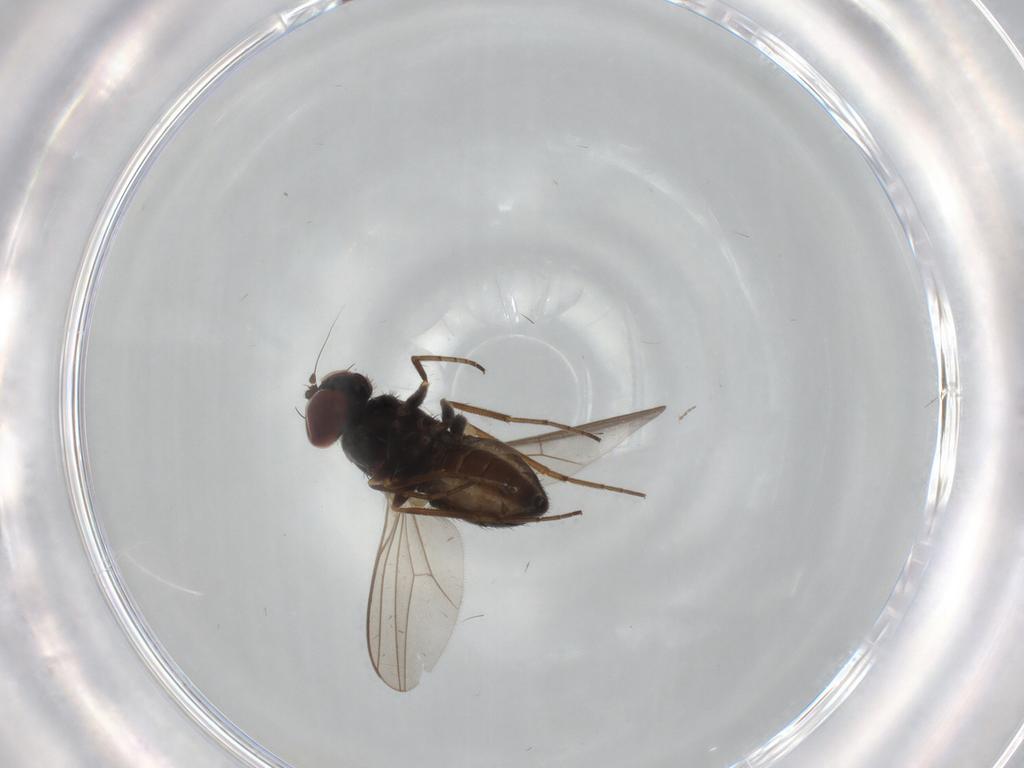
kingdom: Animalia
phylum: Arthropoda
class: Insecta
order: Diptera
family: Dolichopodidae
